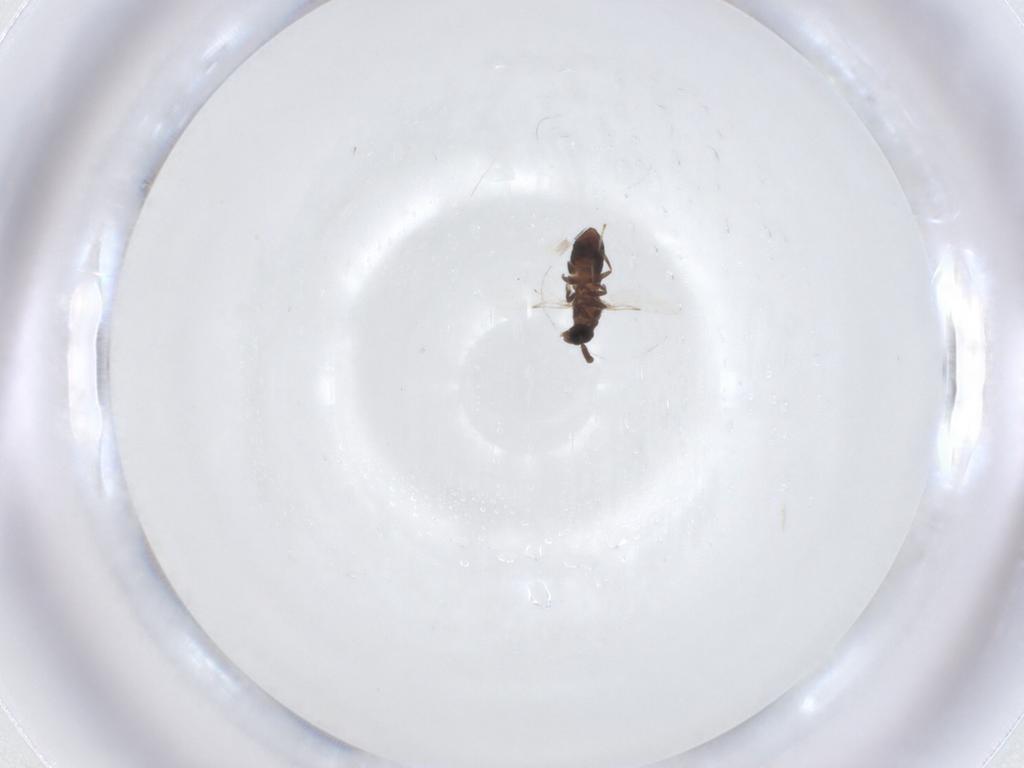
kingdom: Animalia
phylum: Arthropoda
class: Insecta
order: Diptera
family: Scatopsidae
